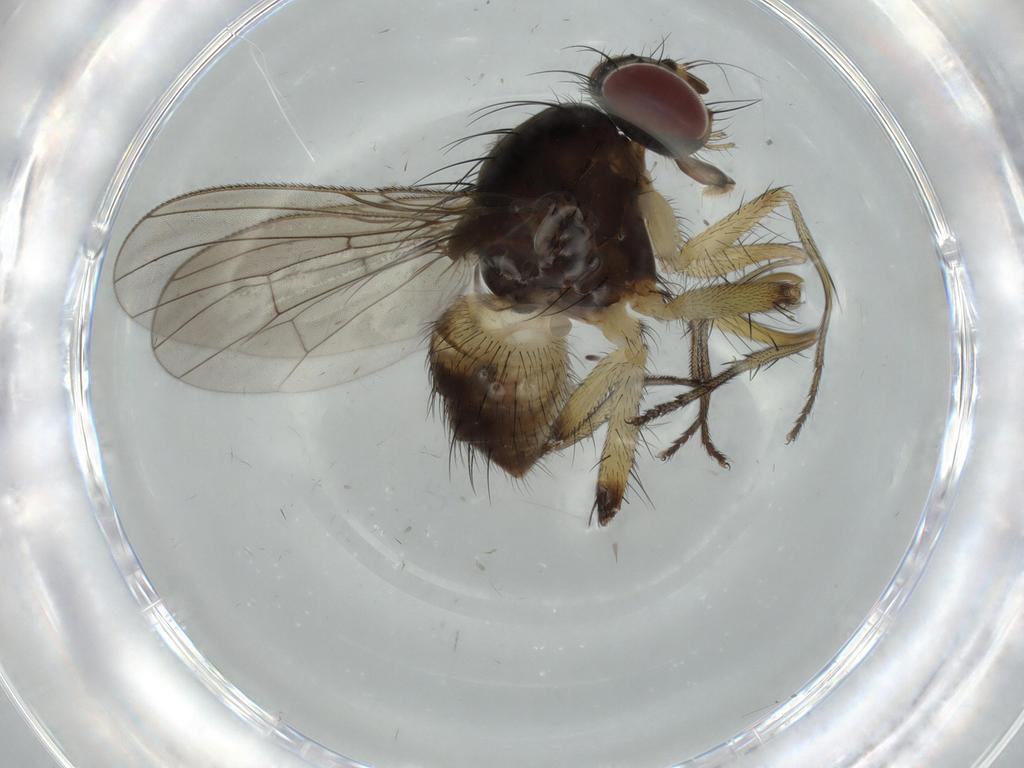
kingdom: Animalia
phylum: Arthropoda
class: Insecta
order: Diptera
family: Muscidae
